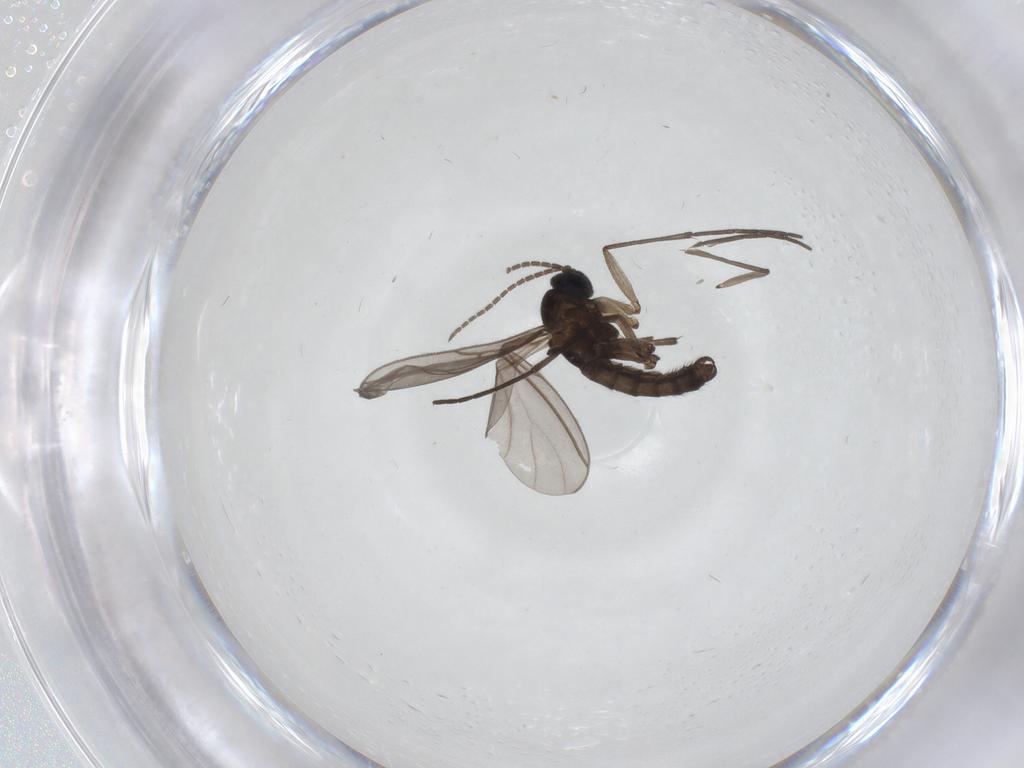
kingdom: Animalia
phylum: Arthropoda
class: Insecta
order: Diptera
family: Sciaridae
